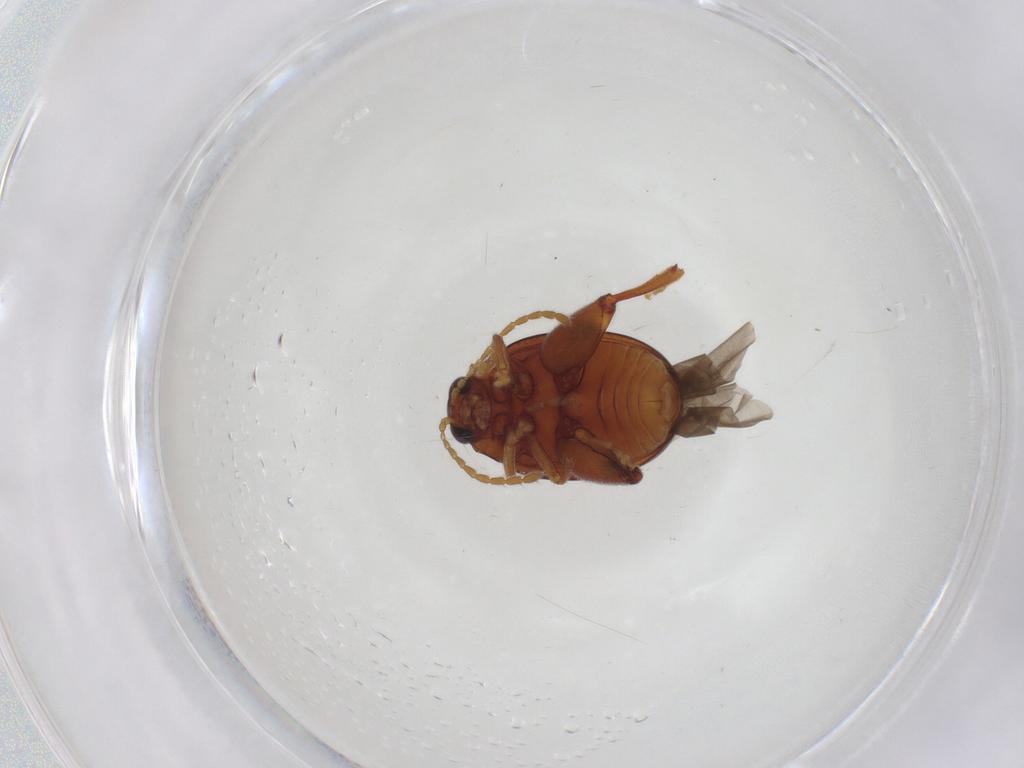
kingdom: Animalia
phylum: Arthropoda
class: Insecta
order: Coleoptera
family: Chrysomelidae
